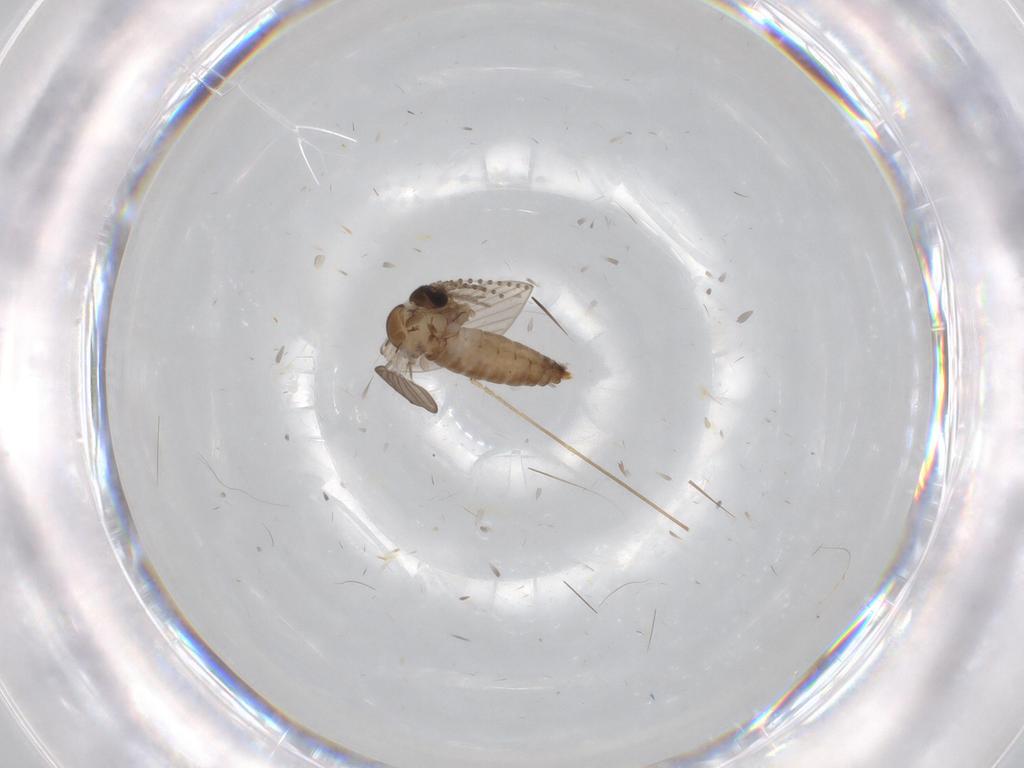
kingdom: Animalia
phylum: Arthropoda
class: Insecta
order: Diptera
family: Psychodidae
